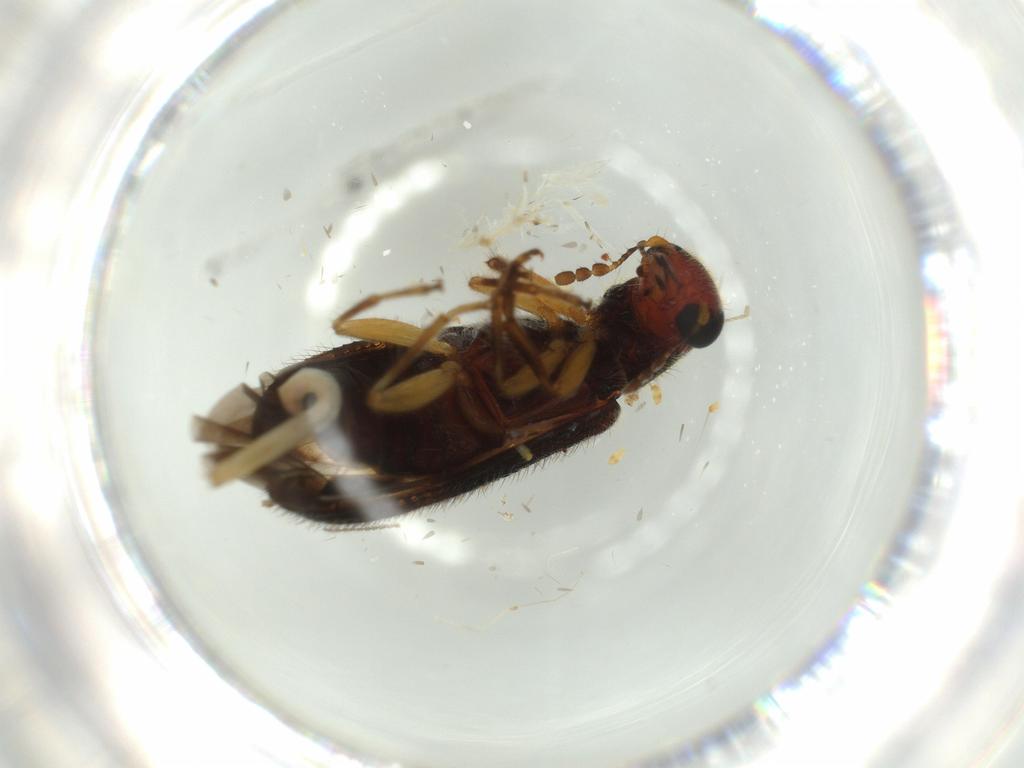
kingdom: Animalia
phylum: Arthropoda
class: Insecta
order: Coleoptera
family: Cleridae
